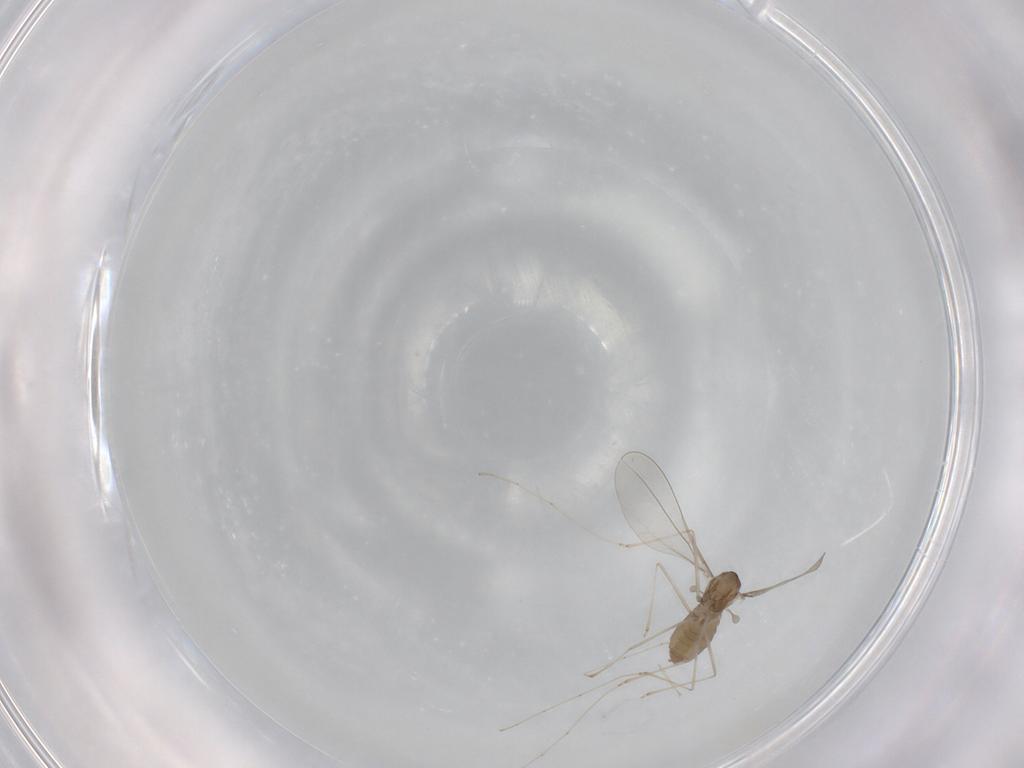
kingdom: Animalia
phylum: Arthropoda
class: Insecta
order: Diptera
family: Cecidomyiidae
